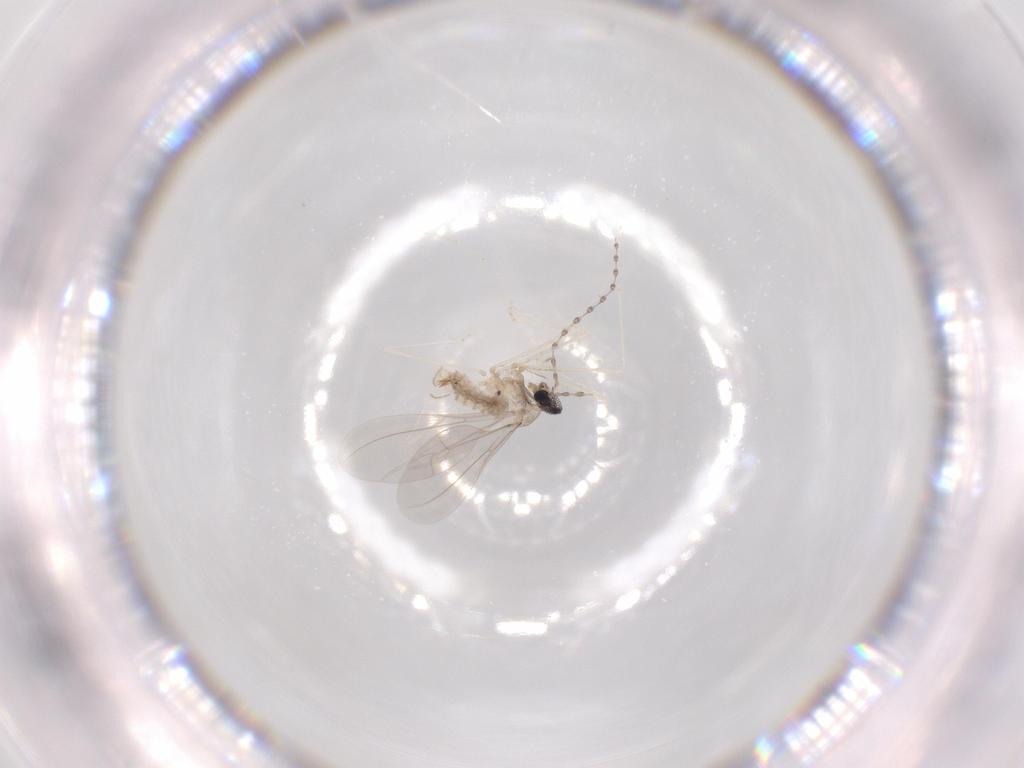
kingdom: Animalia
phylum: Arthropoda
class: Insecta
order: Diptera
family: Cecidomyiidae
